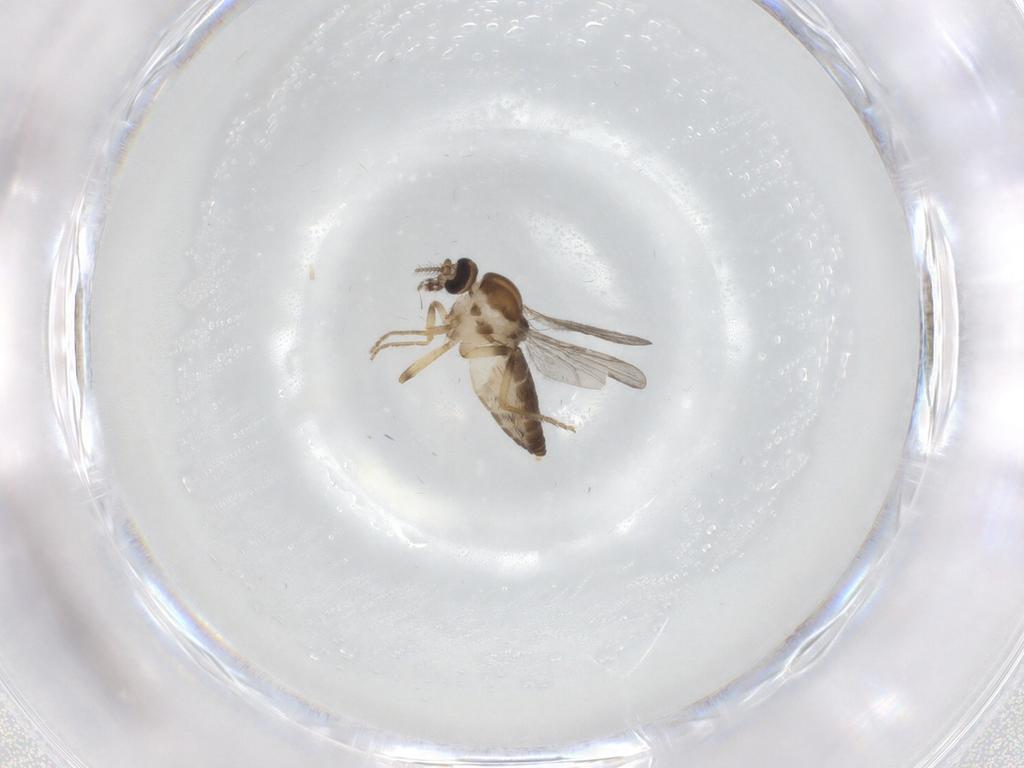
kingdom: Animalia
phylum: Arthropoda
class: Insecta
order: Diptera
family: Ceratopogonidae
